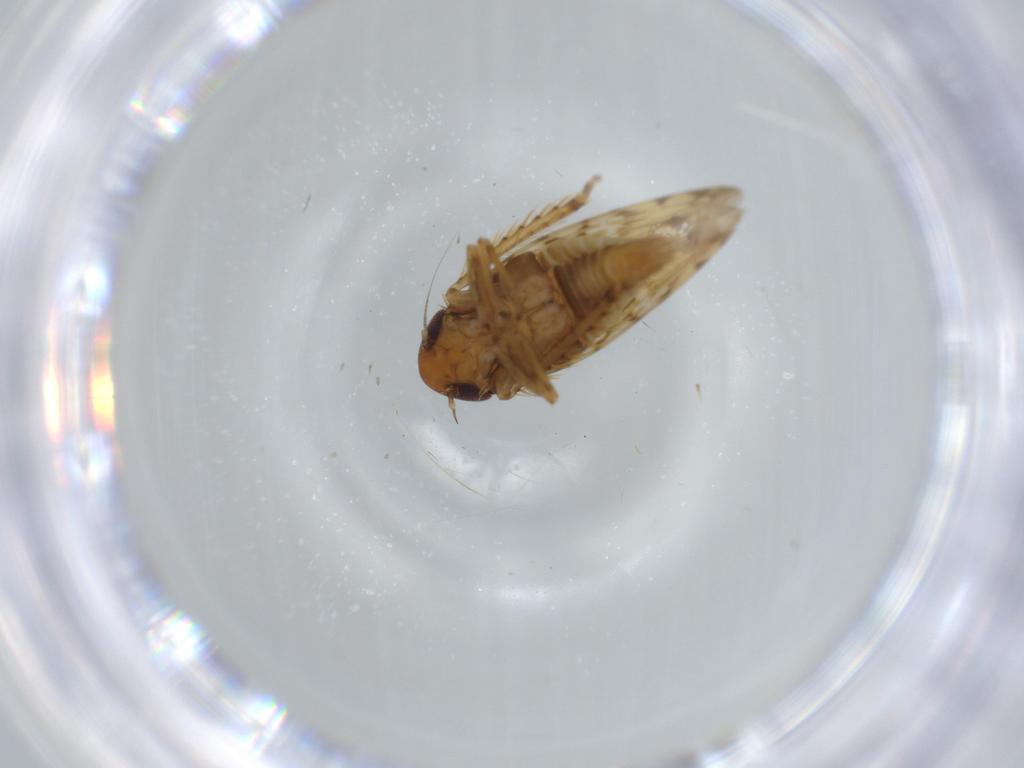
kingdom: Animalia
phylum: Arthropoda
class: Insecta
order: Hemiptera
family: Cicadellidae
